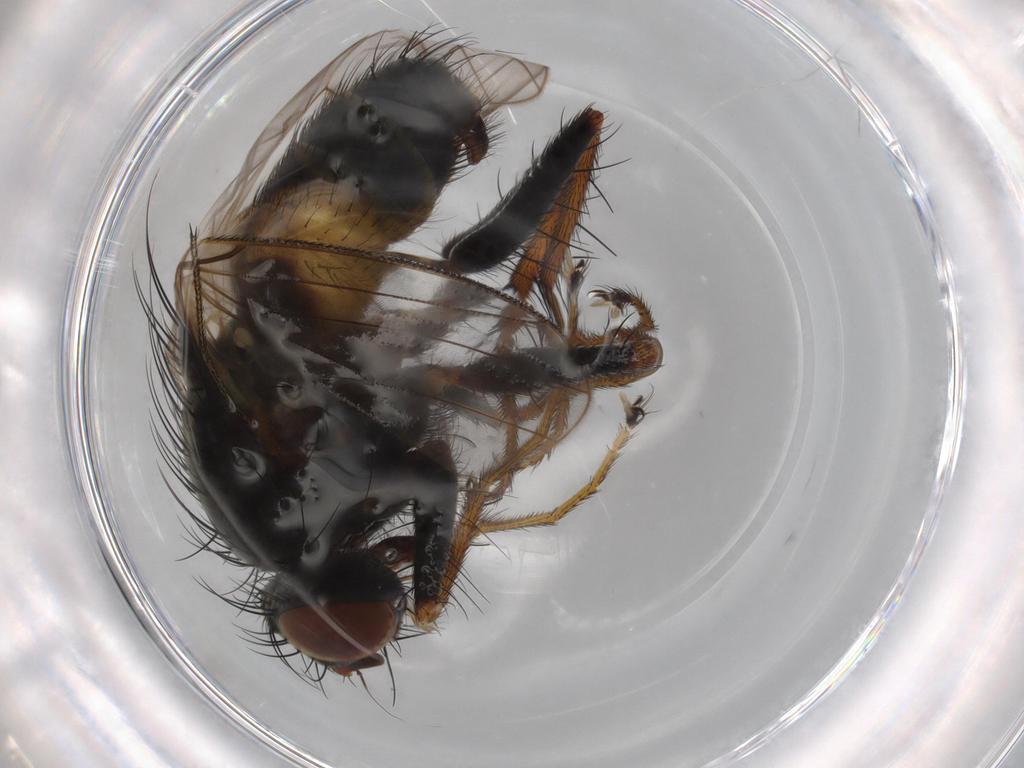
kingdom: Animalia
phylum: Arthropoda
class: Insecta
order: Diptera
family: Muscidae
